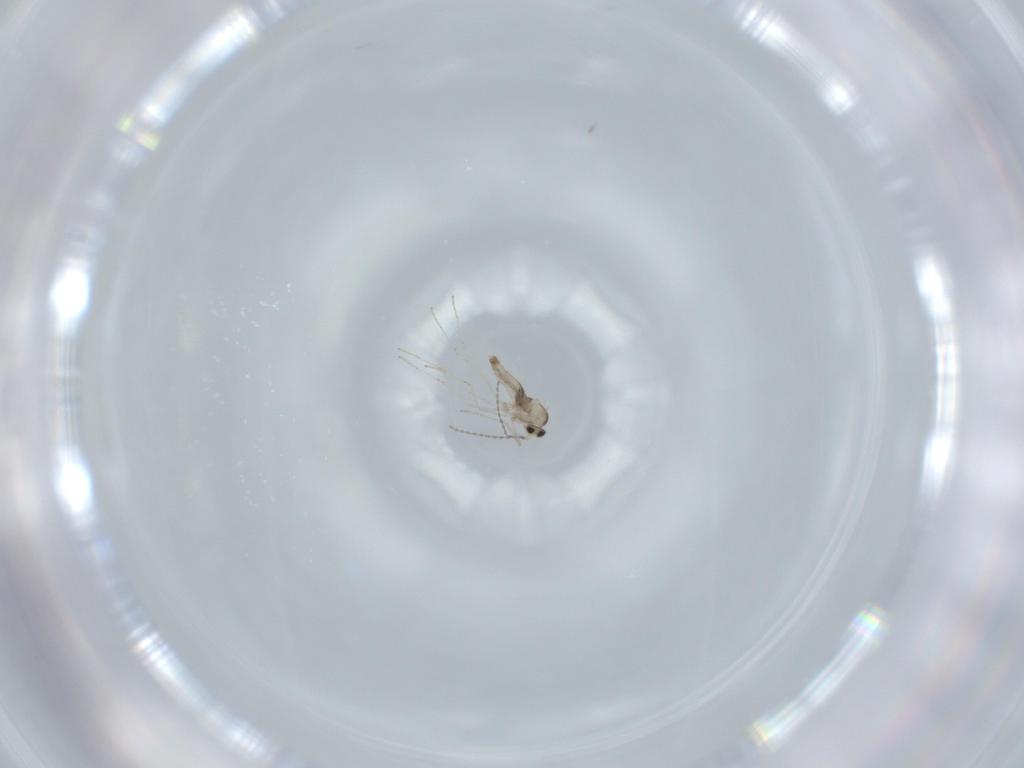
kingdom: Animalia
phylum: Arthropoda
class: Insecta
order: Diptera
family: Cecidomyiidae
